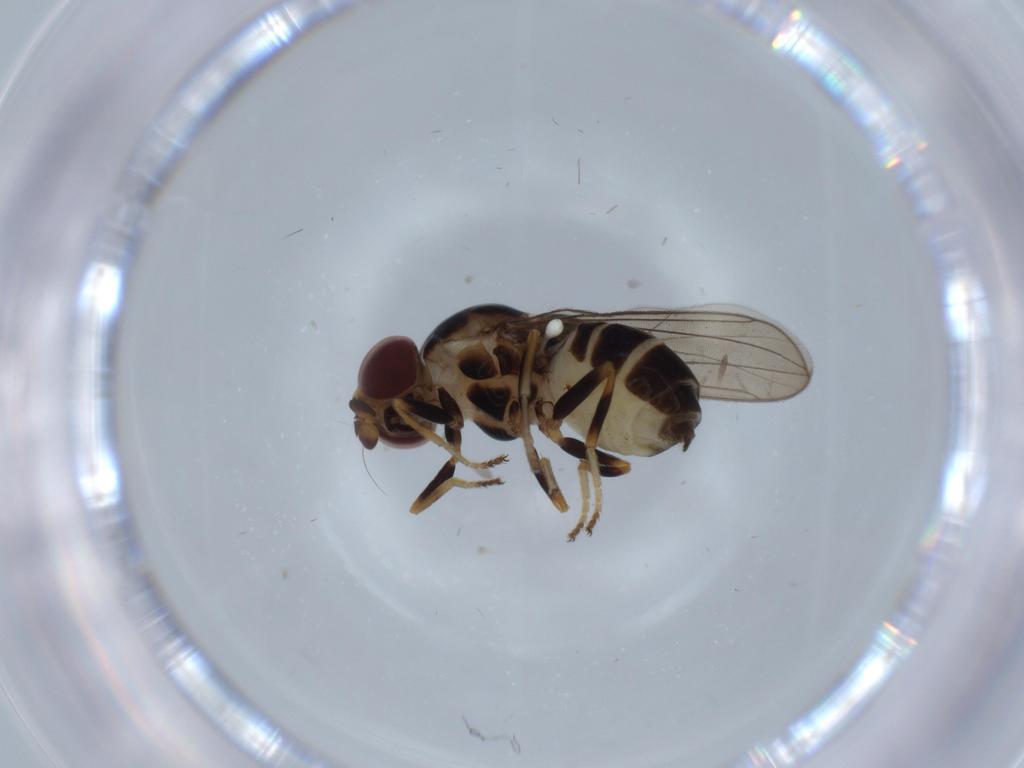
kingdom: Animalia
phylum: Arthropoda
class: Insecta
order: Diptera
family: Chloropidae
